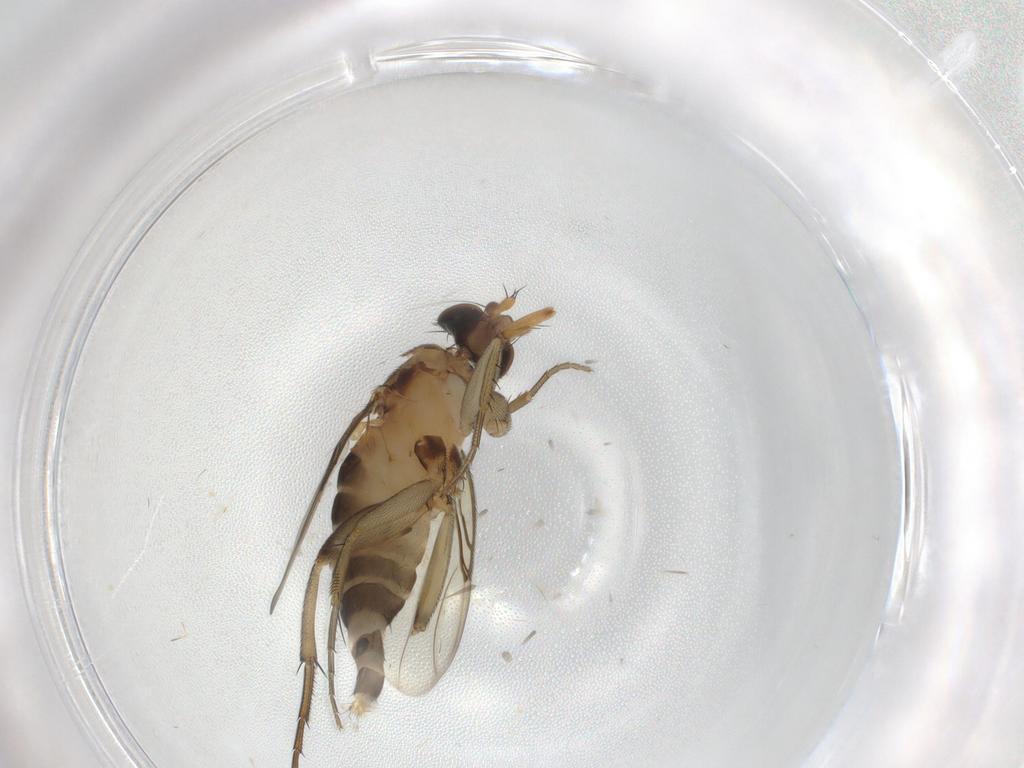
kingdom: Animalia
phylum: Arthropoda
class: Insecta
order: Diptera
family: Phoridae
